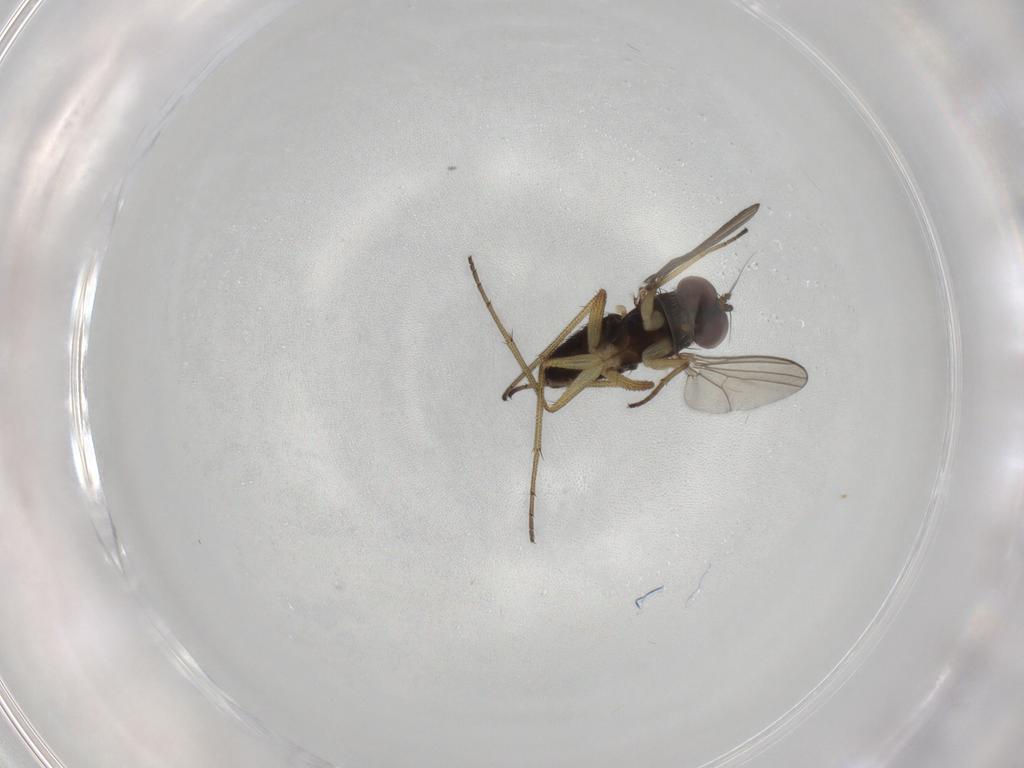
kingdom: Animalia
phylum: Arthropoda
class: Insecta
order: Diptera
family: Dolichopodidae
